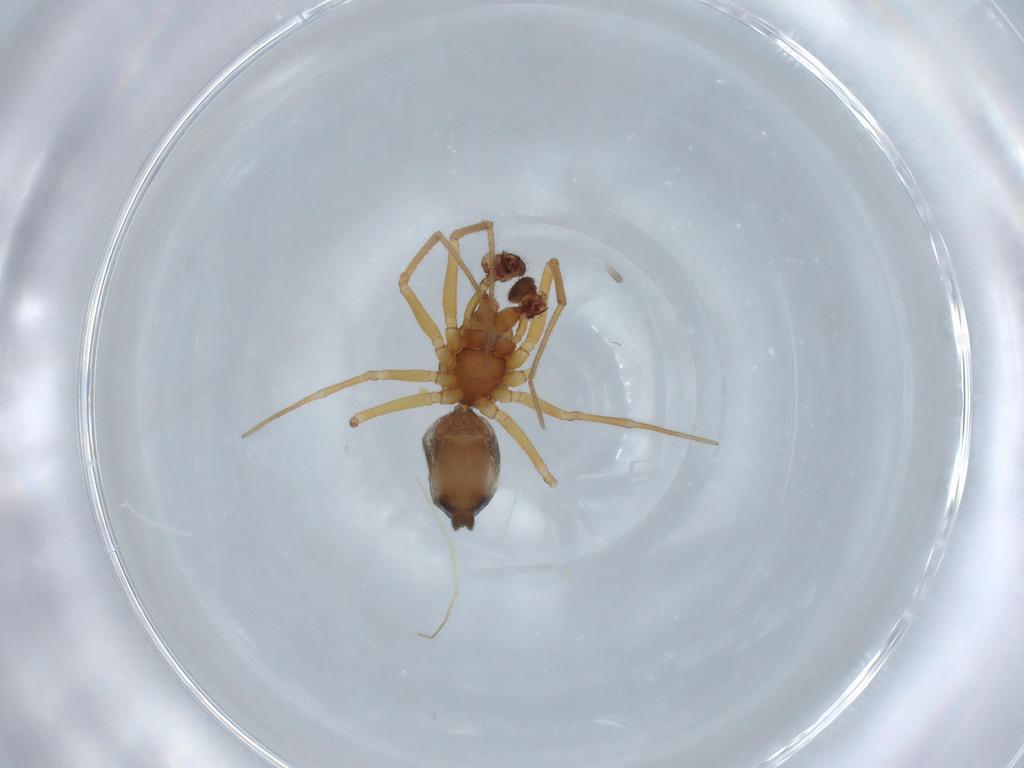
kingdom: Animalia
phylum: Arthropoda
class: Arachnida
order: Araneae
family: Linyphiidae
